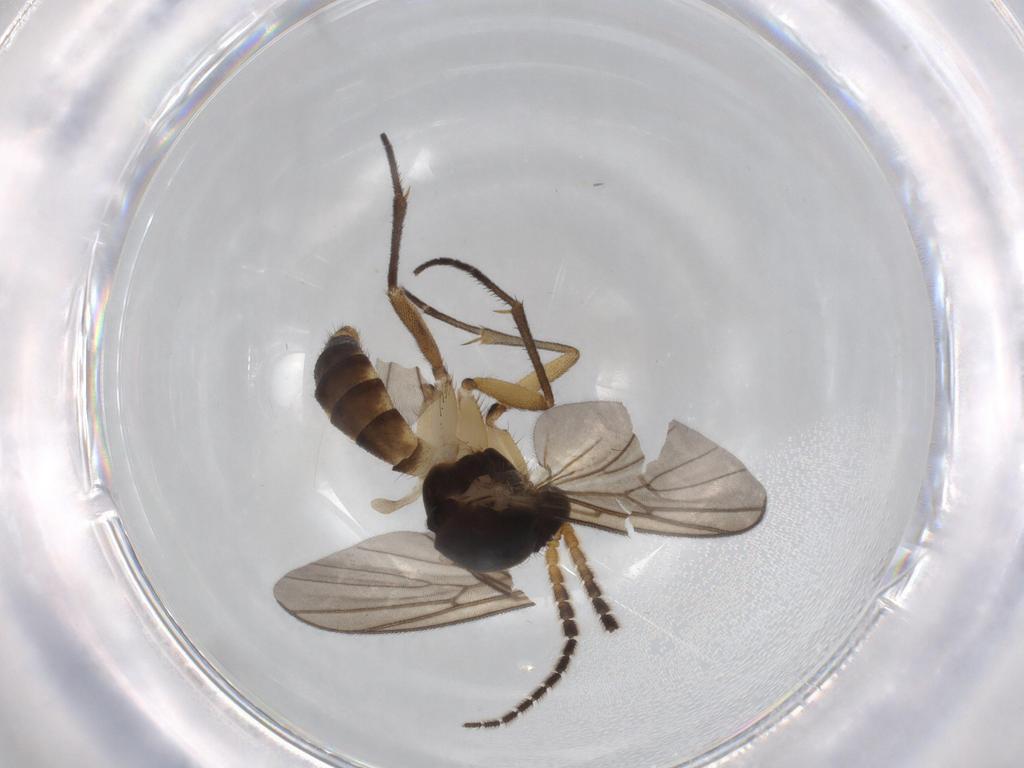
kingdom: Animalia
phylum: Arthropoda
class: Insecta
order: Diptera
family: Mycetophilidae
